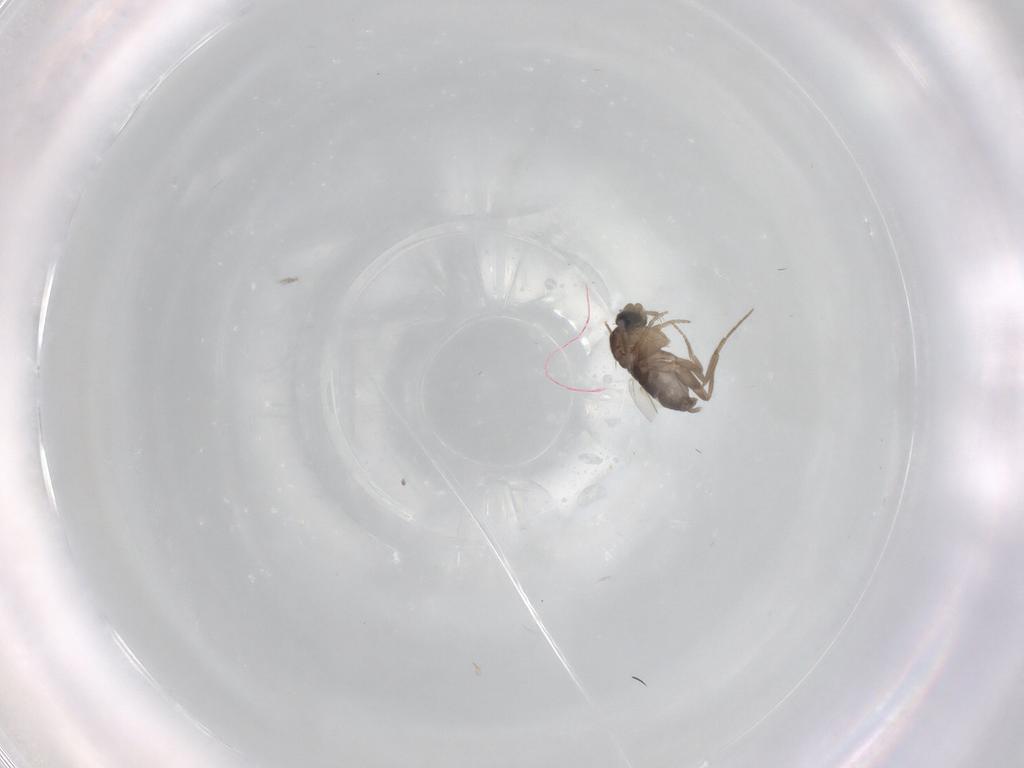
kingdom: Animalia
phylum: Arthropoda
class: Insecta
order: Diptera
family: Phoridae
